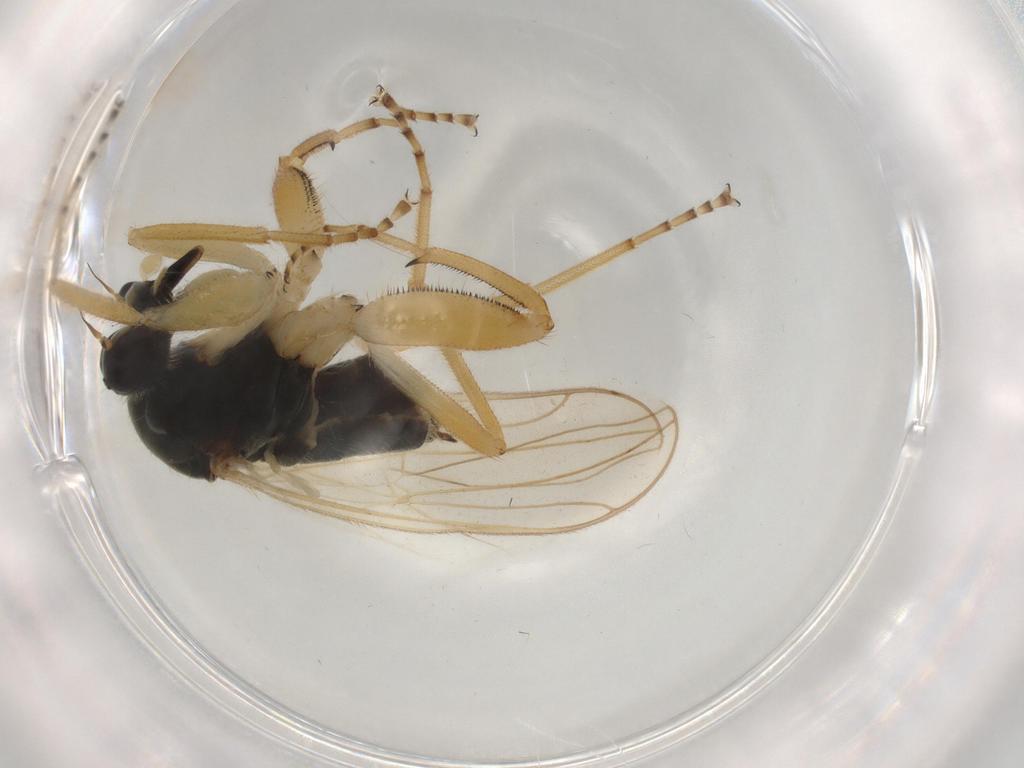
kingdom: Animalia
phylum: Arthropoda
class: Insecta
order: Diptera
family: Hybotidae
